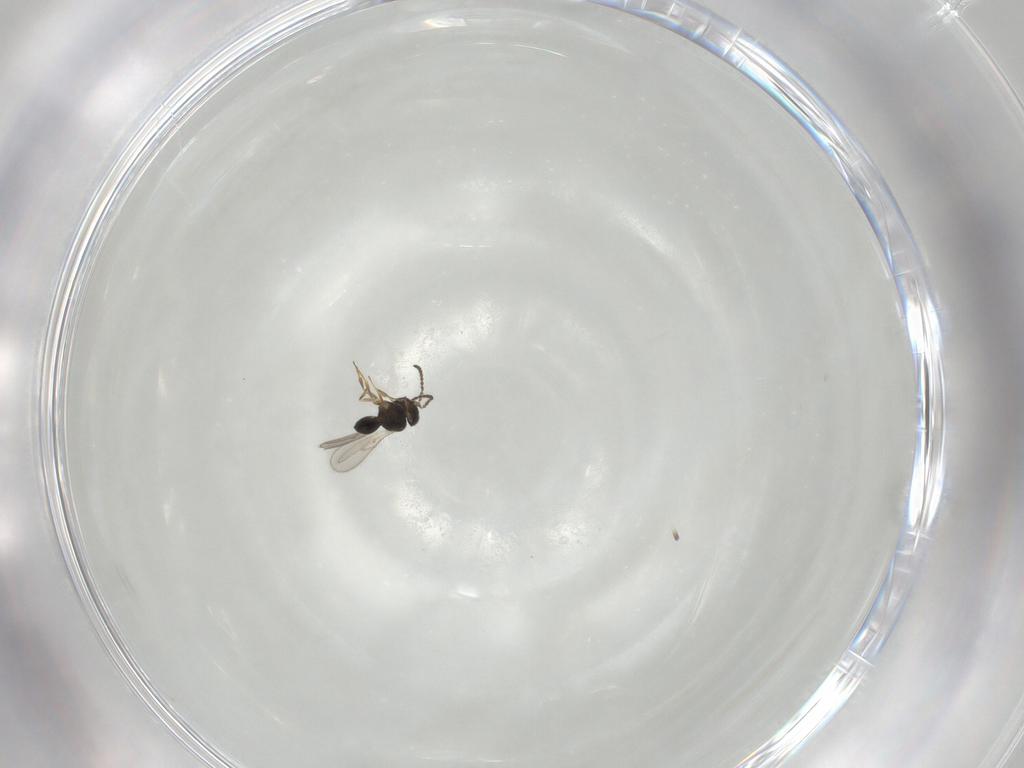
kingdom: Animalia
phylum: Arthropoda
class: Insecta
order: Hymenoptera
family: Scelionidae
